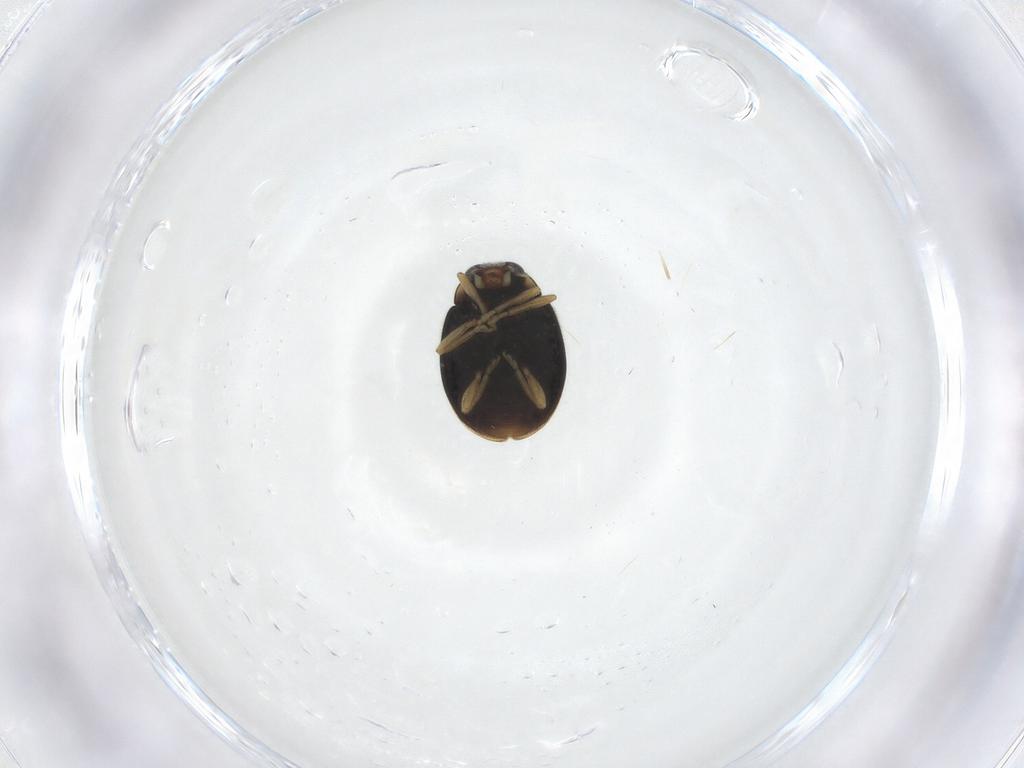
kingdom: Animalia
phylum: Arthropoda
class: Insecta
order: Coleoptera
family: Coccinellidae
